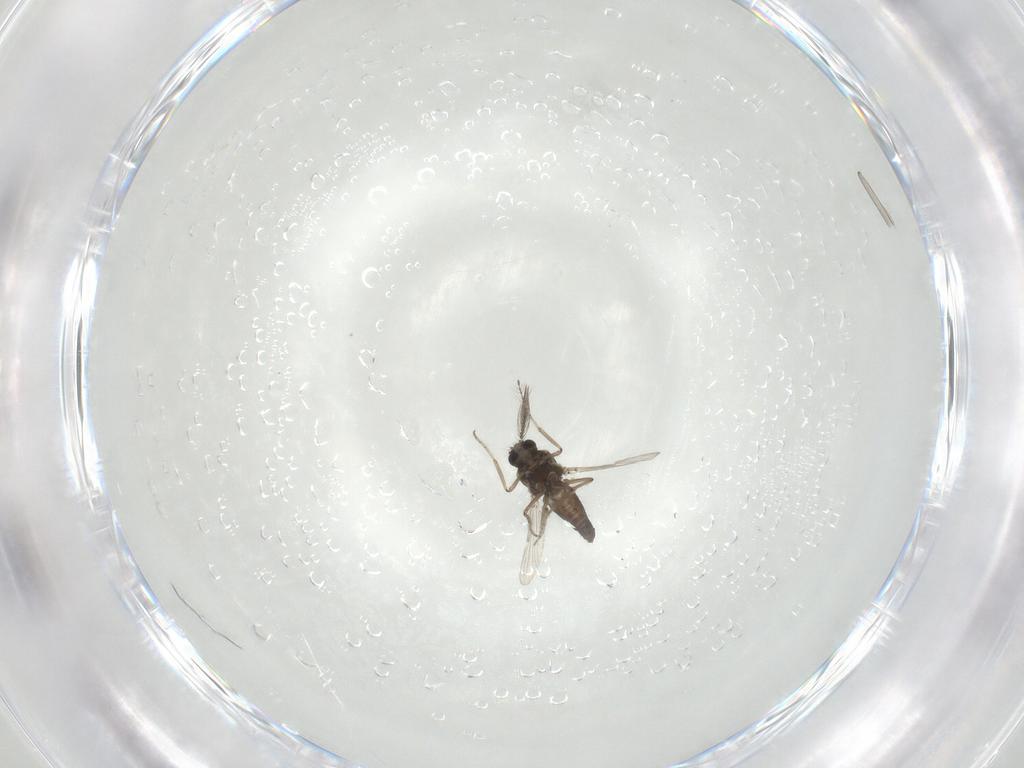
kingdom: Animalia
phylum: Arthropoda
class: Insecta
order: Diptera
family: Ceratopogonidae
